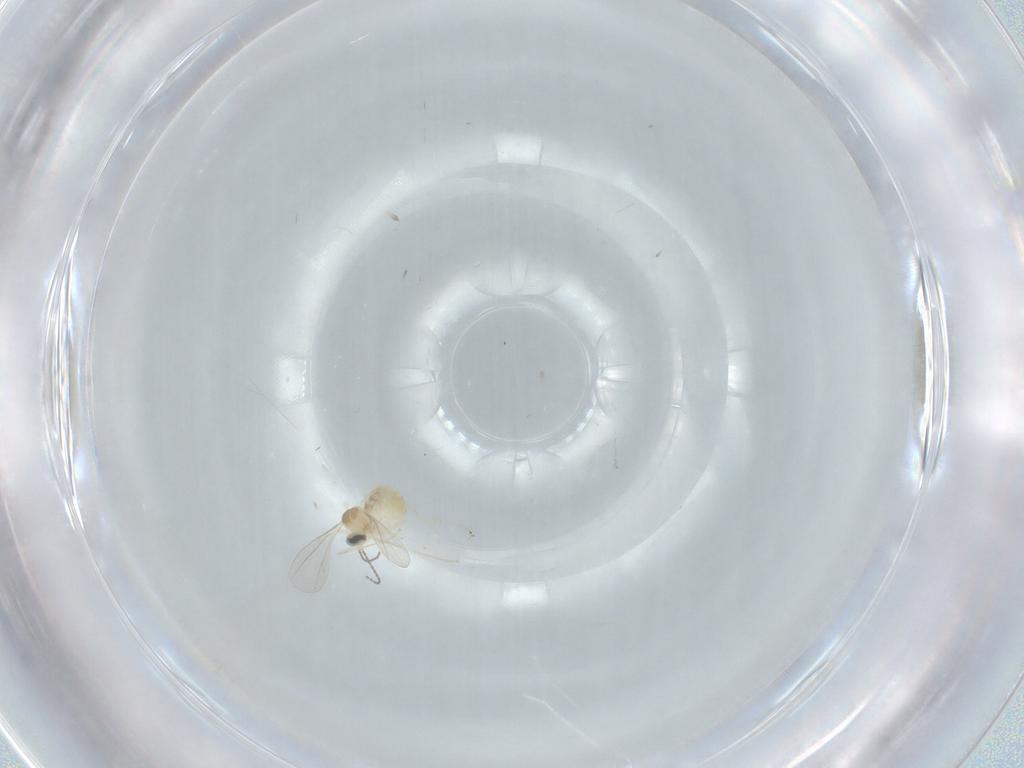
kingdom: Animalia
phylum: Arthropoda
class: Insecta
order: Diptera
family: Cecidomyiidae
